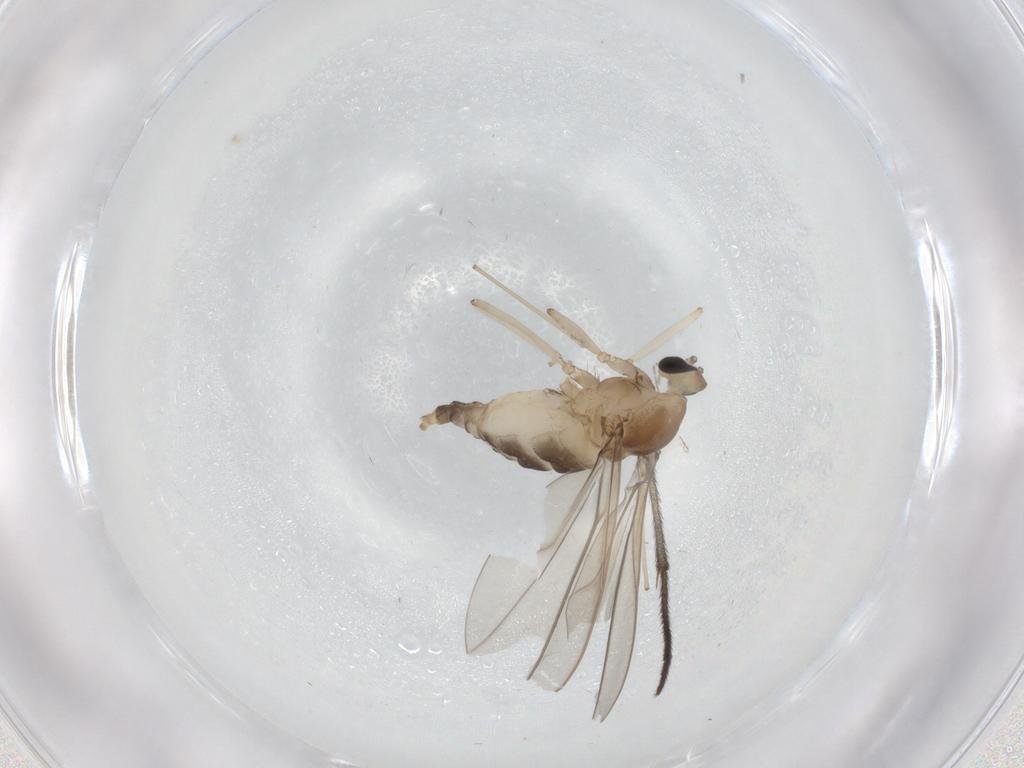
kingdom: Animalia
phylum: Arthropoda
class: Insecta
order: Diptera
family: Cecidomyiidae
